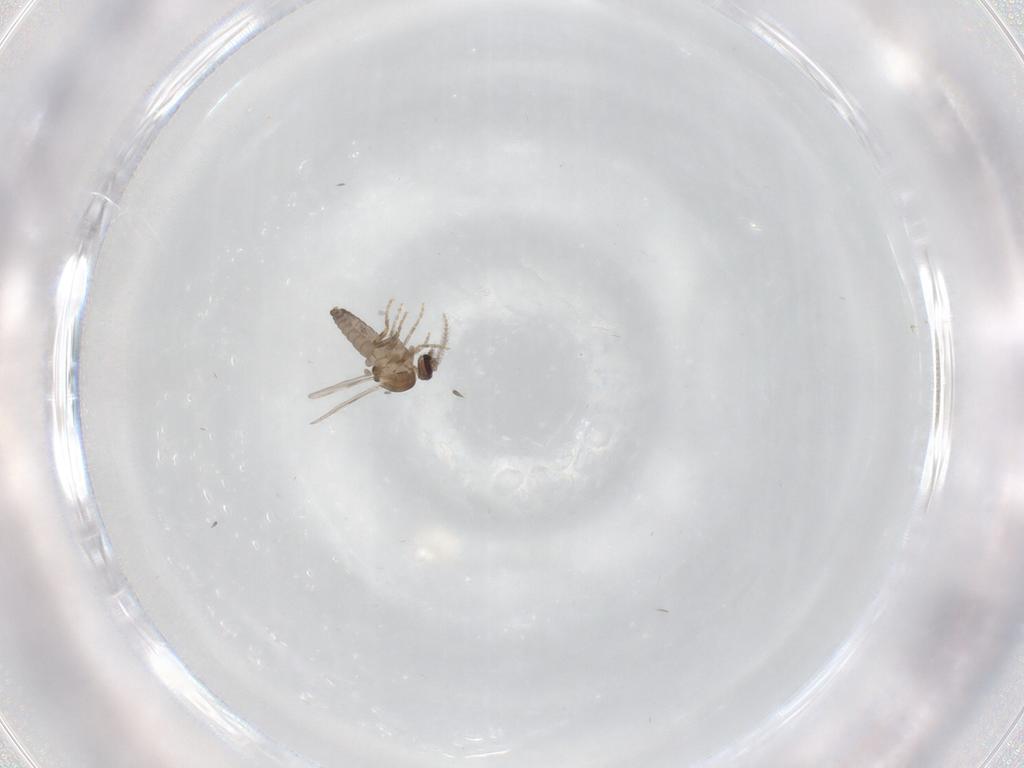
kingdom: Animalia
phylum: Arthropoda
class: Insecta
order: Diptera
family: Ceratopogonidae
